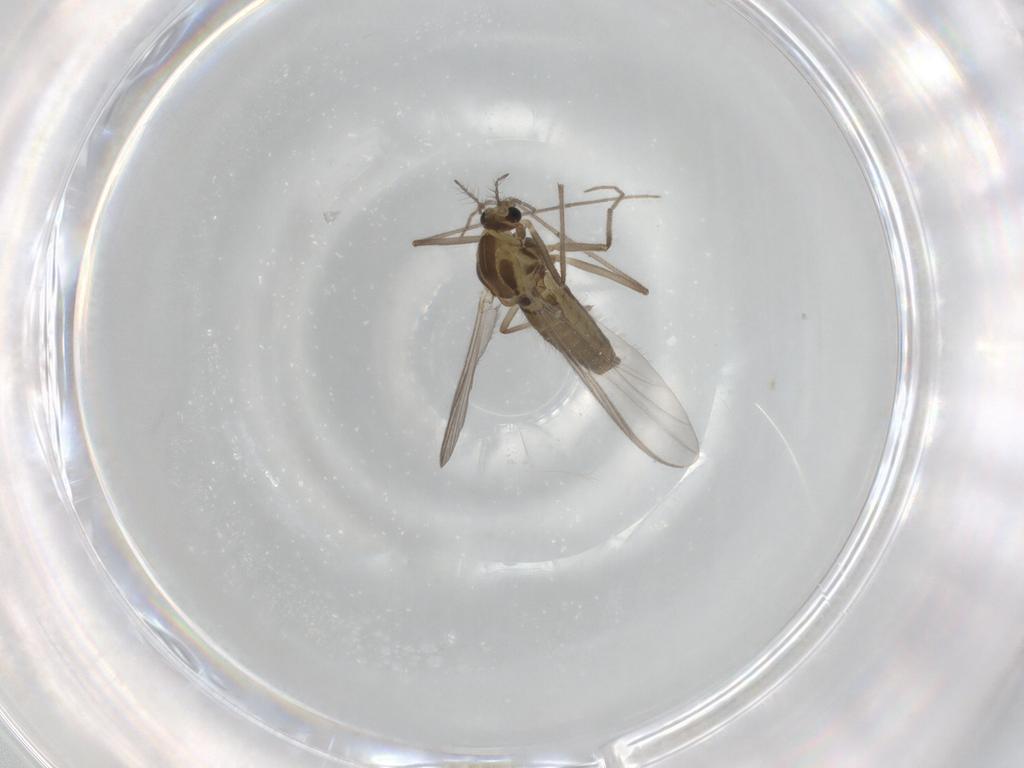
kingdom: Animalia
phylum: Arthropoda
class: Insecta
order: Diptera
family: Chironomidae
